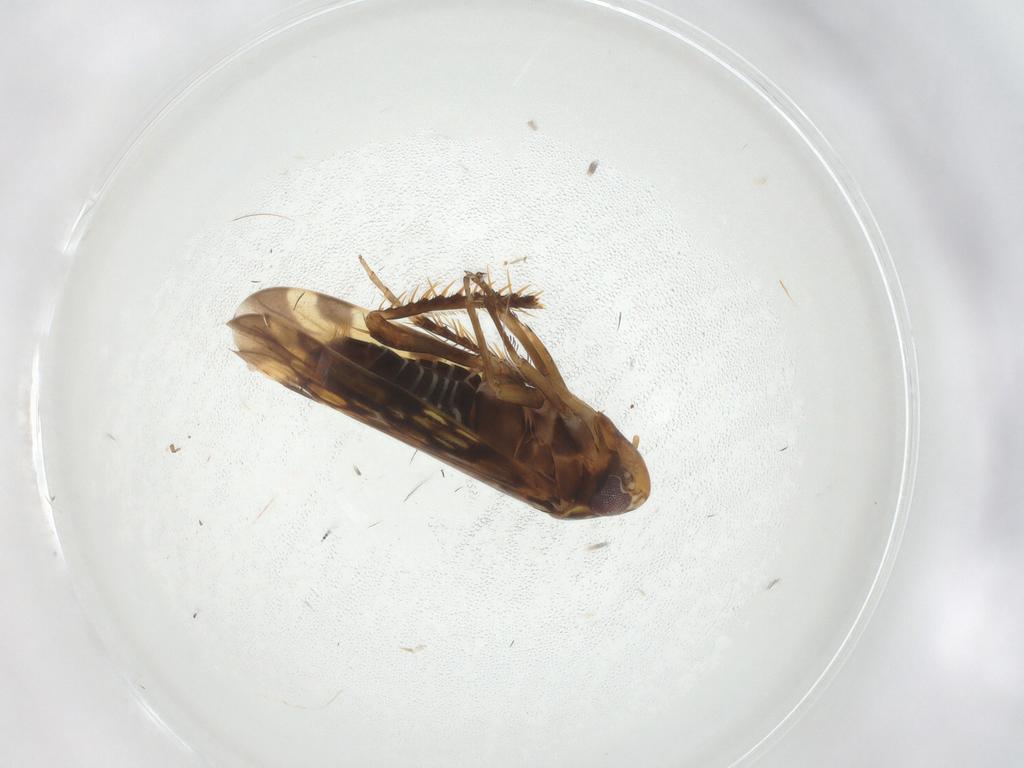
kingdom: Animalia
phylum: Arthropoda
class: Insecta
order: Hemiptera
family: Cicadellidae
